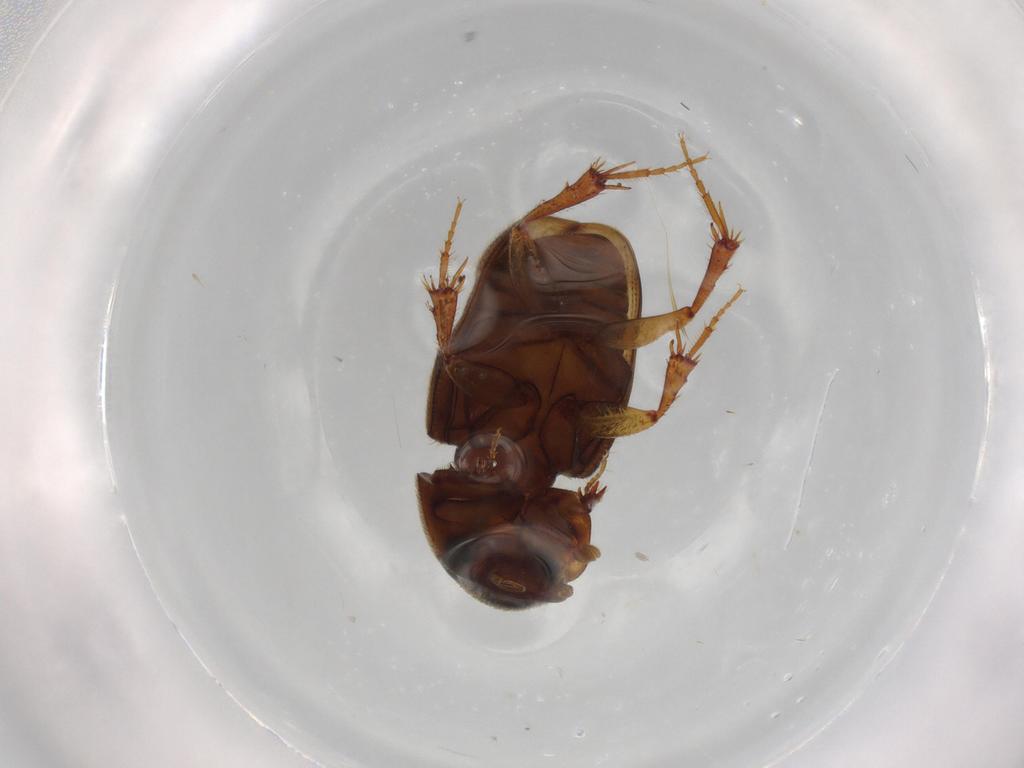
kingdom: Animalia
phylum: Arthropoda
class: Insecta
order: Coleoptera
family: Scarabaeidae
